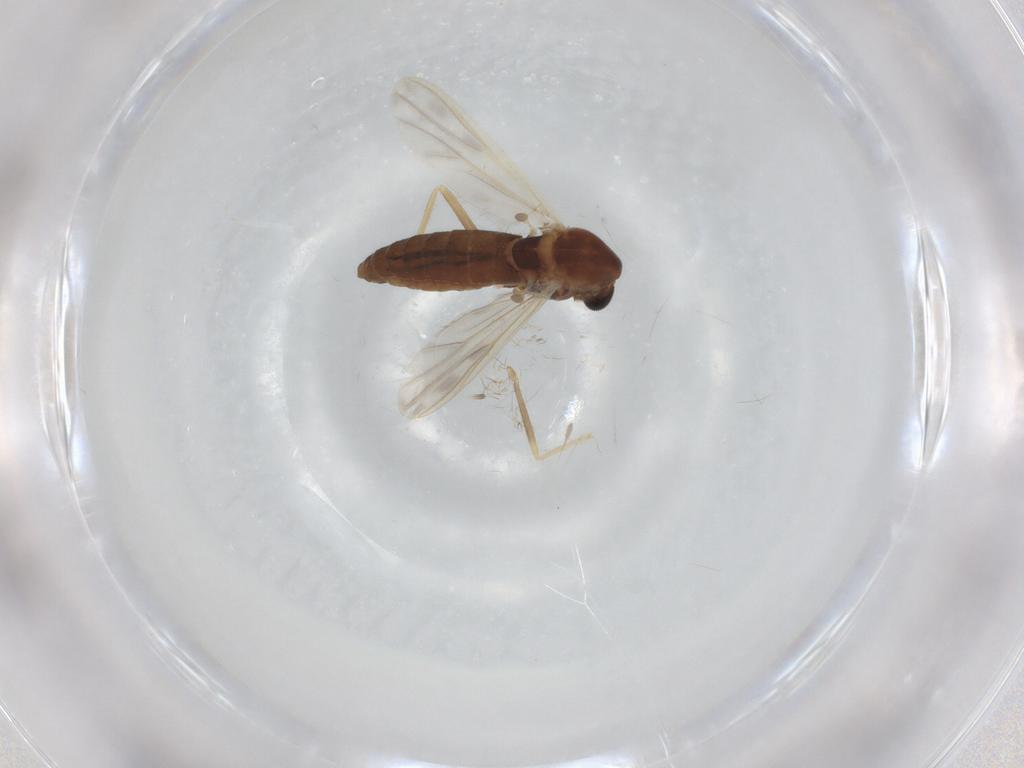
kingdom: Animalia
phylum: Arthropoda
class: Insecta
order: Diptera
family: Chironomidae
